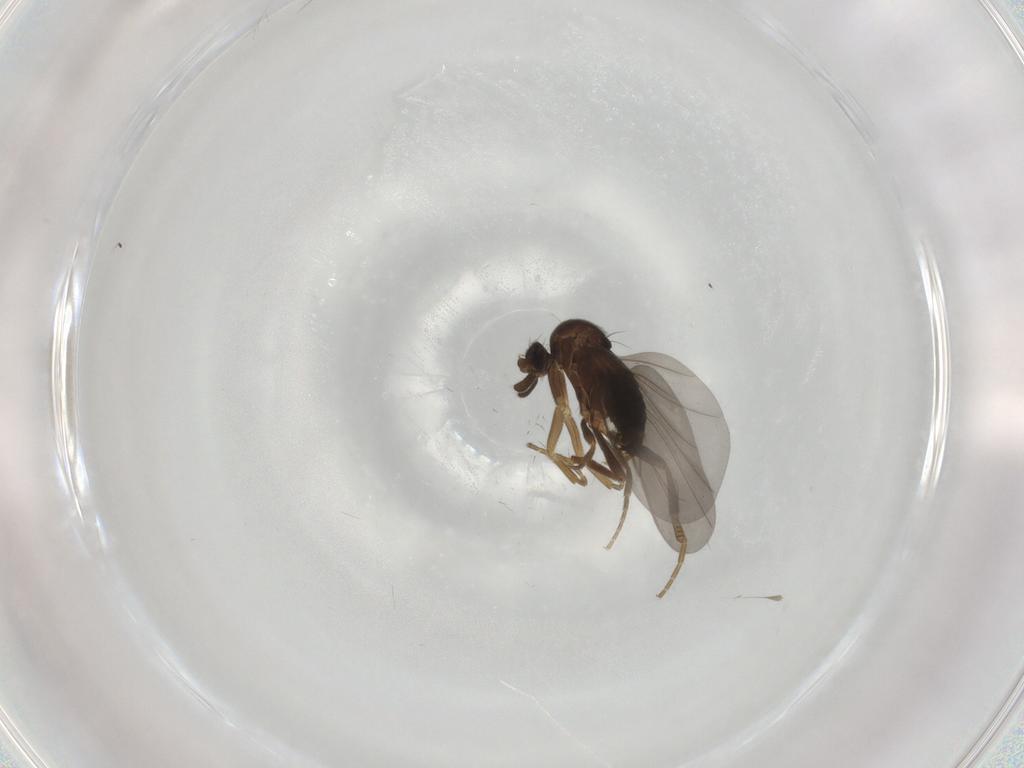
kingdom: Animalia
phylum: Arthropoda
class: Insecta
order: Diptera
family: Chironomidae
